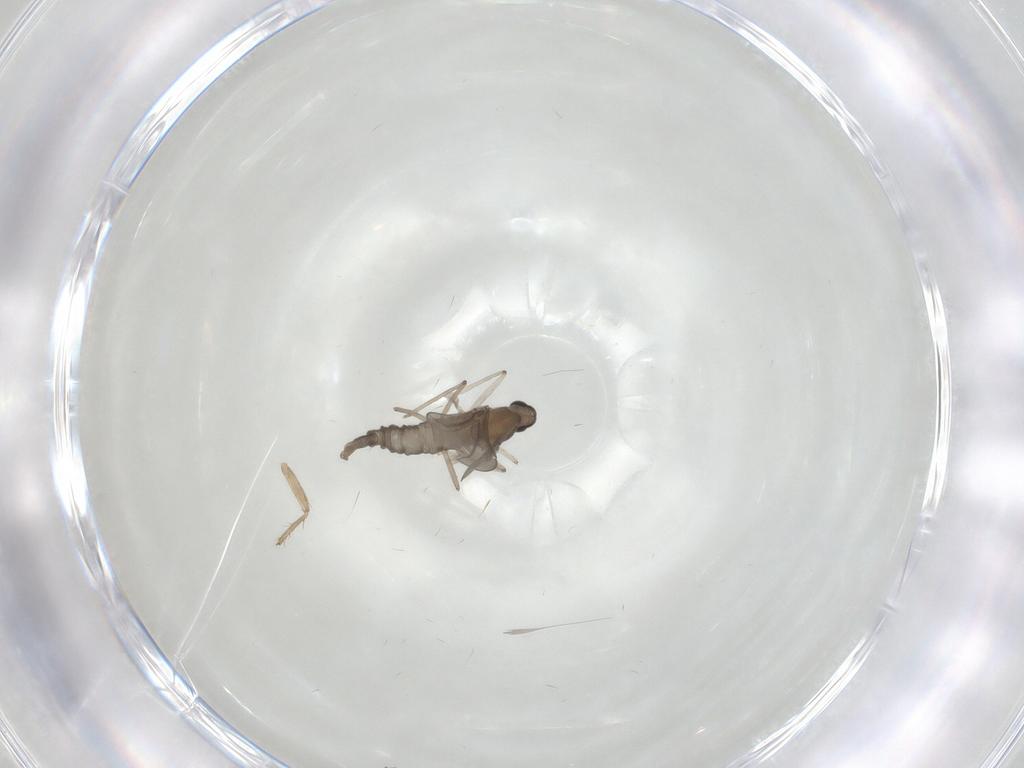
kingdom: Animalia
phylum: Arthropoda
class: Insecta
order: Diptera
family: Cecidomyiidae
